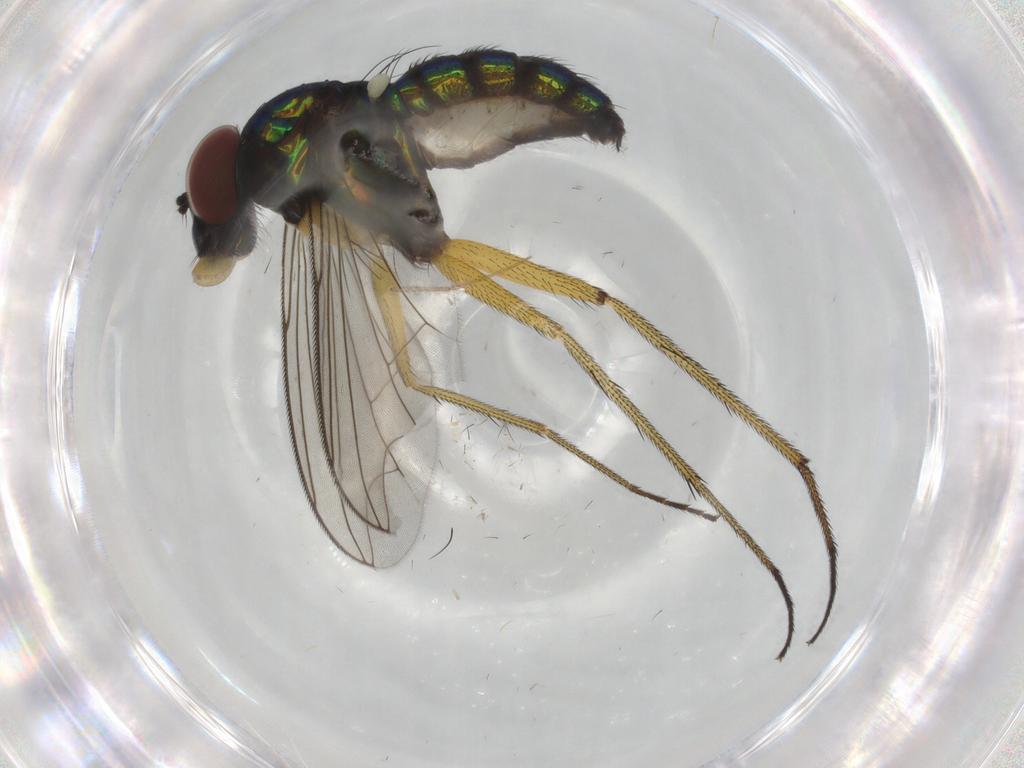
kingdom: Animalia
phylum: Arthropoda
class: Insecta
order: Diptera
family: Dolichopodidae
